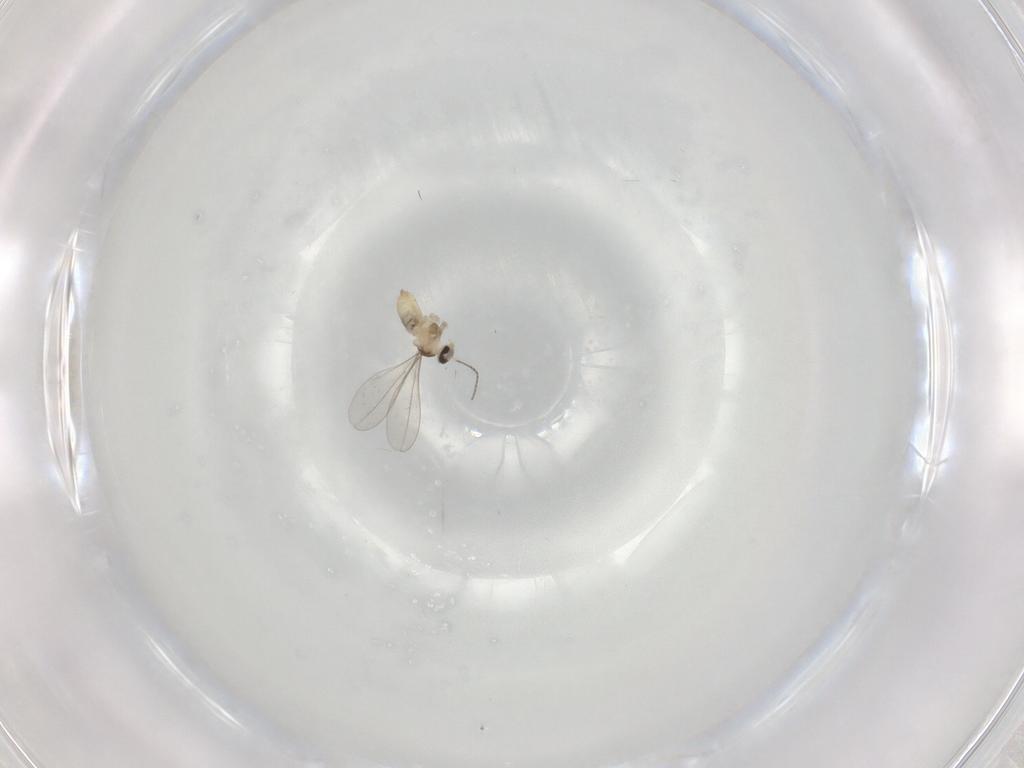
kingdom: Animalia
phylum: Arthropoda
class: Insecta
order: Diptera
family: Cecidomyiidae
